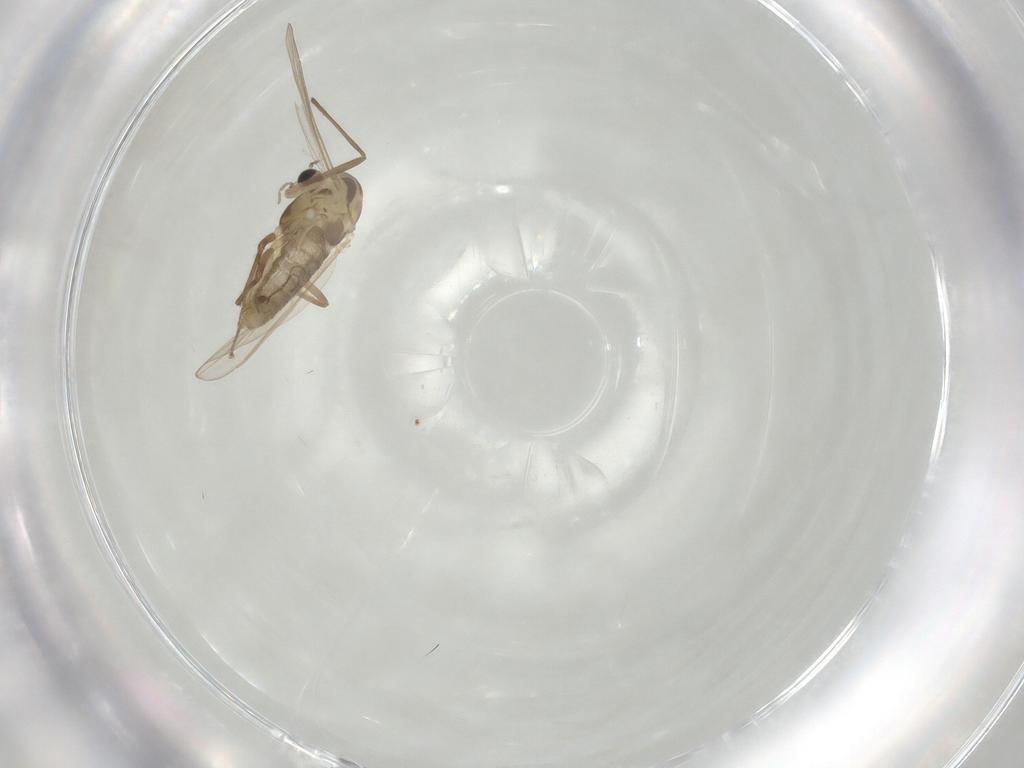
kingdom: Animalia
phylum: Arthropoda
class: Insecta
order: Diptera
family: Chironomidae
